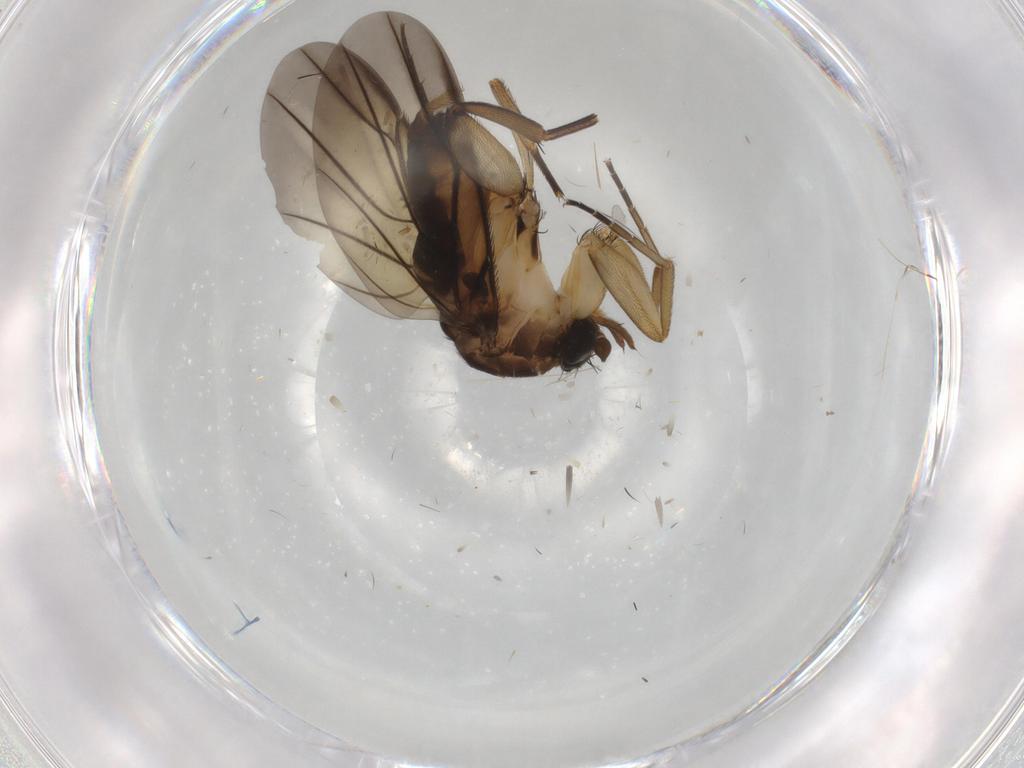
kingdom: Animalia
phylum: Arthropoda
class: Insecta
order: Diptera
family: Phoridae
